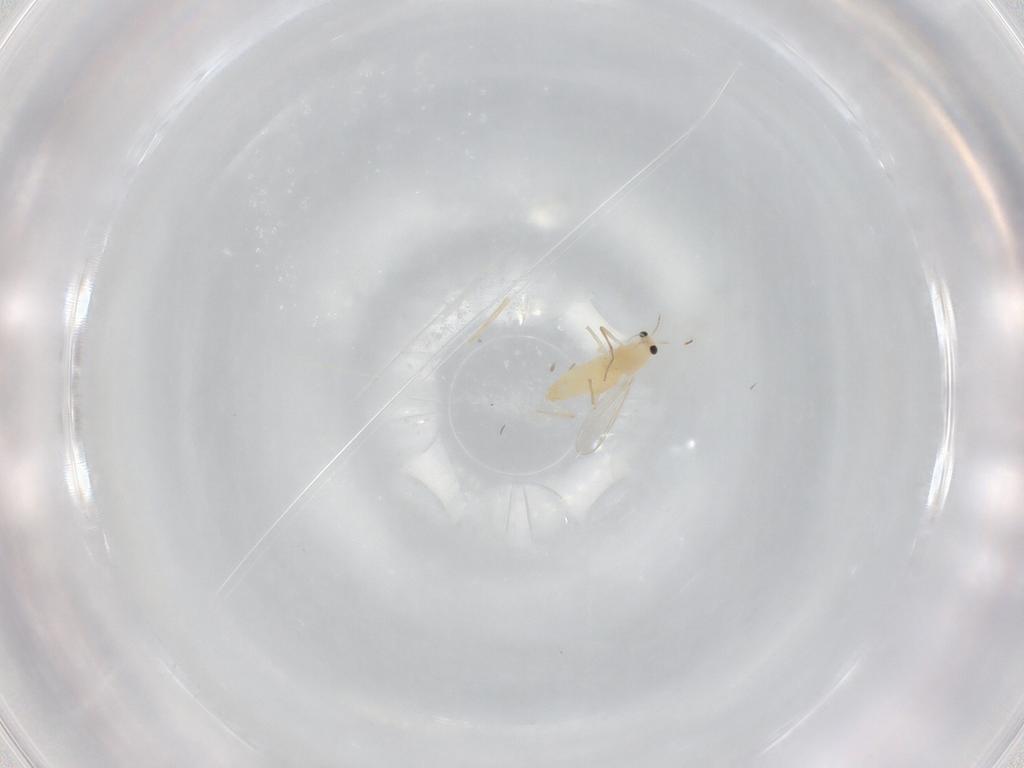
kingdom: Animalia
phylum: Arthropoda
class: Insecta
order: Diptera
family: Chironomidae
